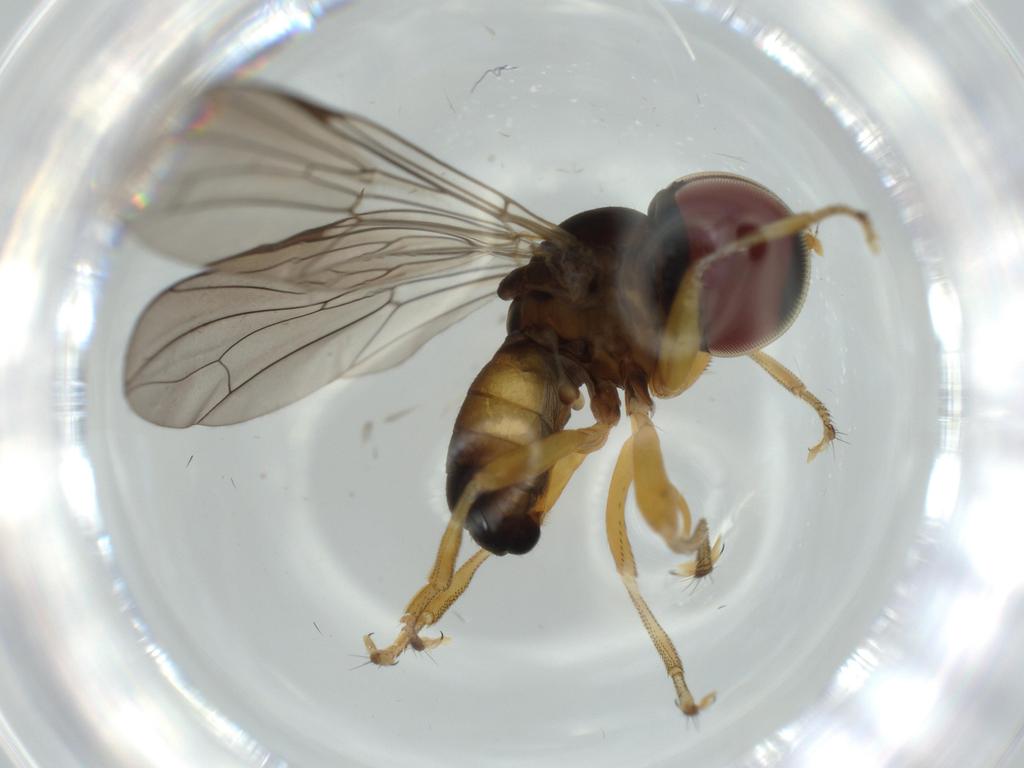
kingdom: Animalia
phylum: Arthropoda
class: Insecta
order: Diptera
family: Pipunculidae
